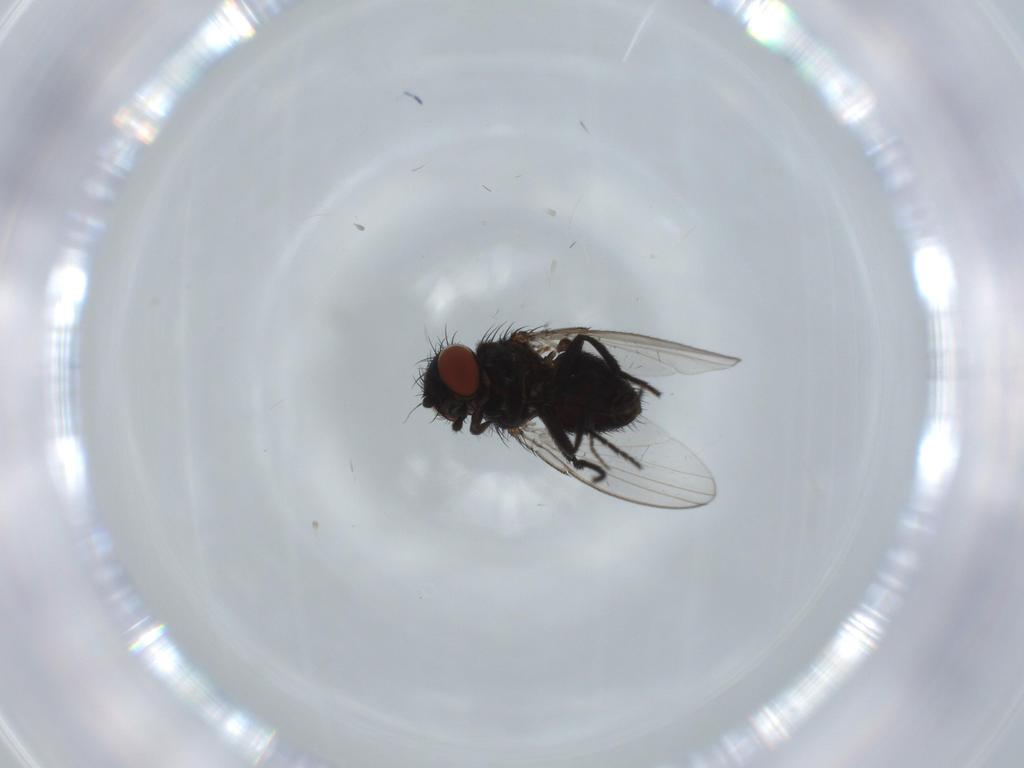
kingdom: Animalia
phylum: Arthropoda
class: Insecta
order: Diptera
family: Milichiidae
